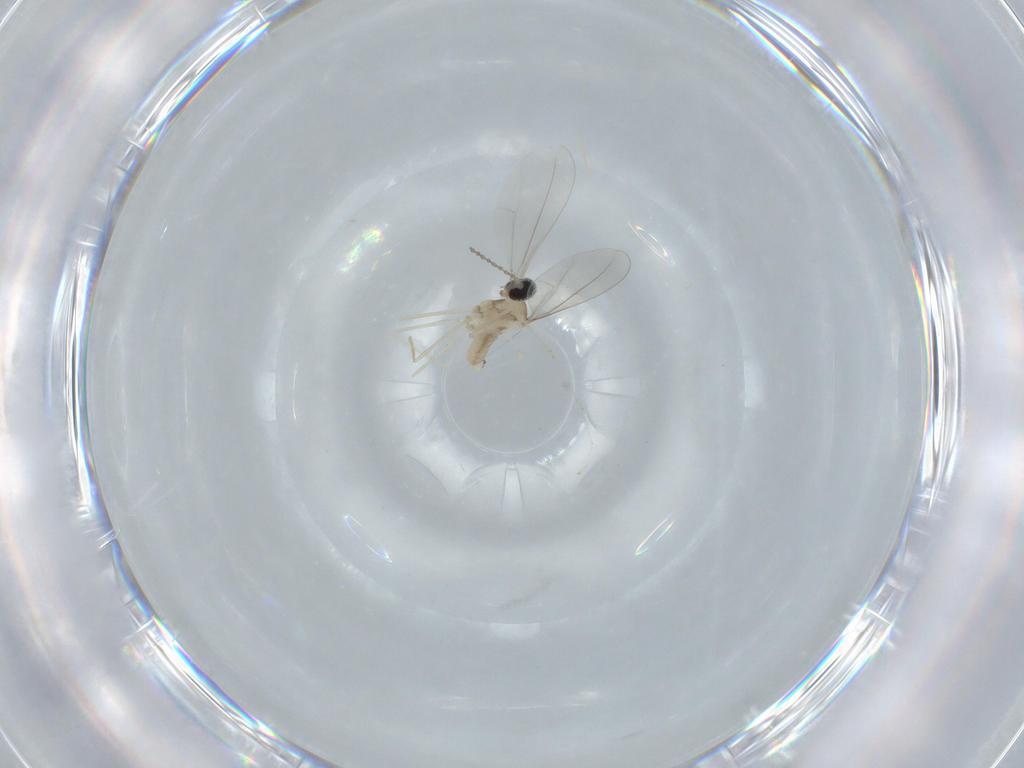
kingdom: Animalia
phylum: Arthropoda
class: Insecta
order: Diptera
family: Cecidomyiidae
